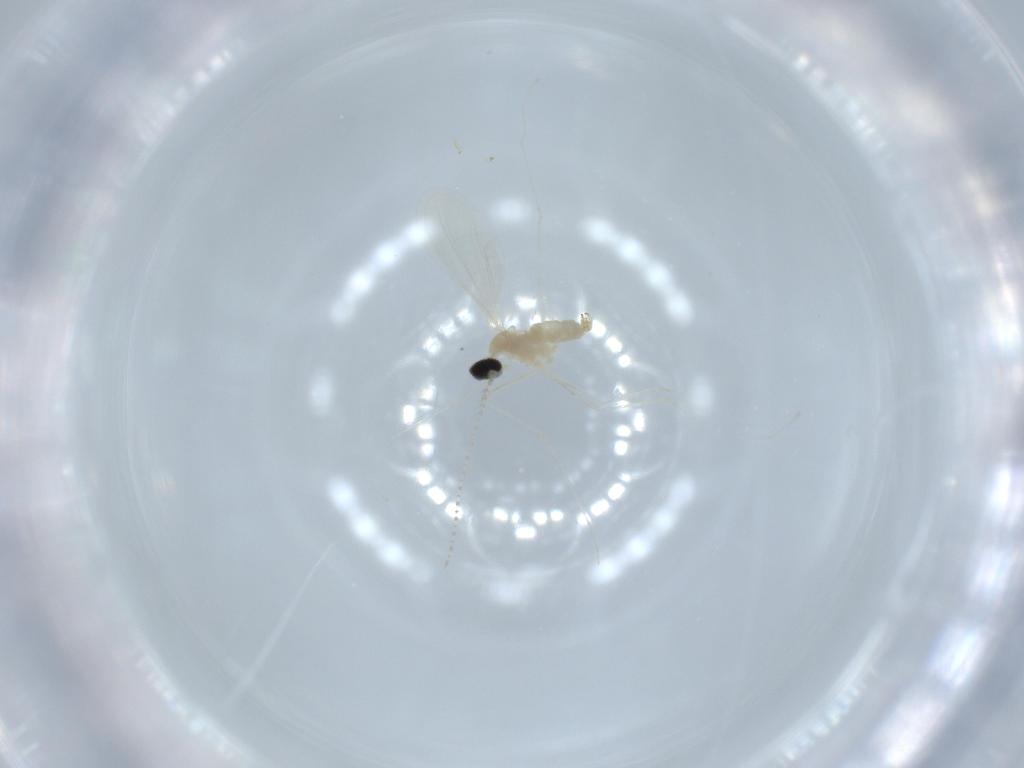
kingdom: Animalia
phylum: Arthropoda
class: Insecta
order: Diptera
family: Cecidomyiidae
